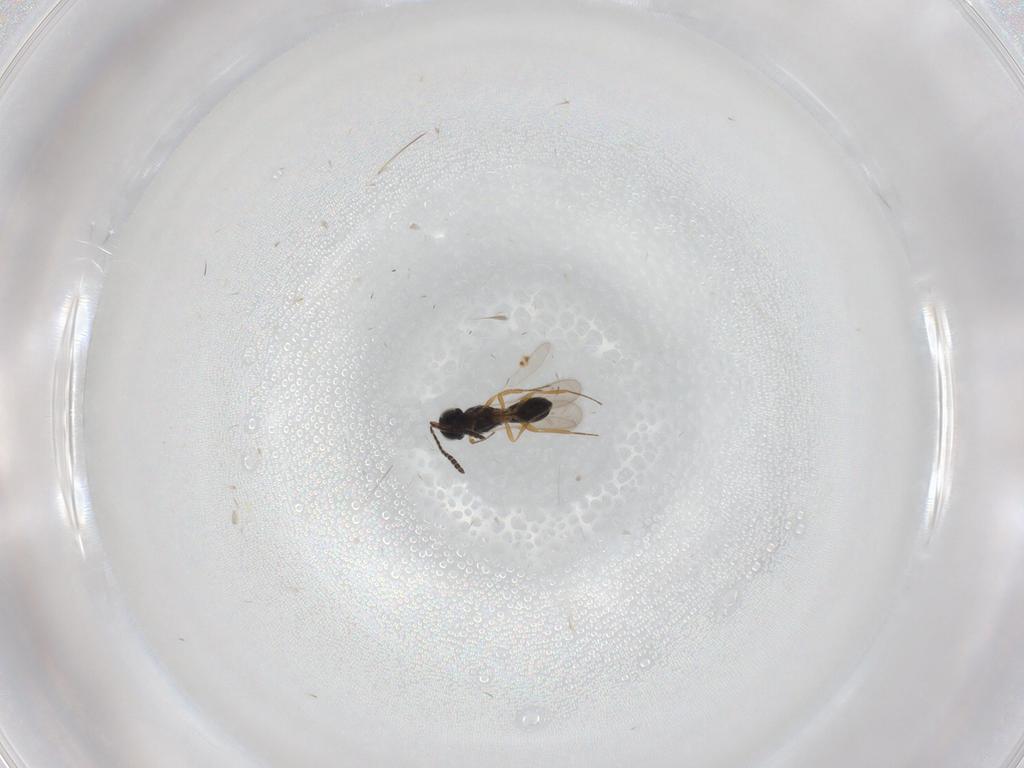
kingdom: Animalia
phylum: Arthropoda
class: Insecta
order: Hymenoptera
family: Scelionidae
